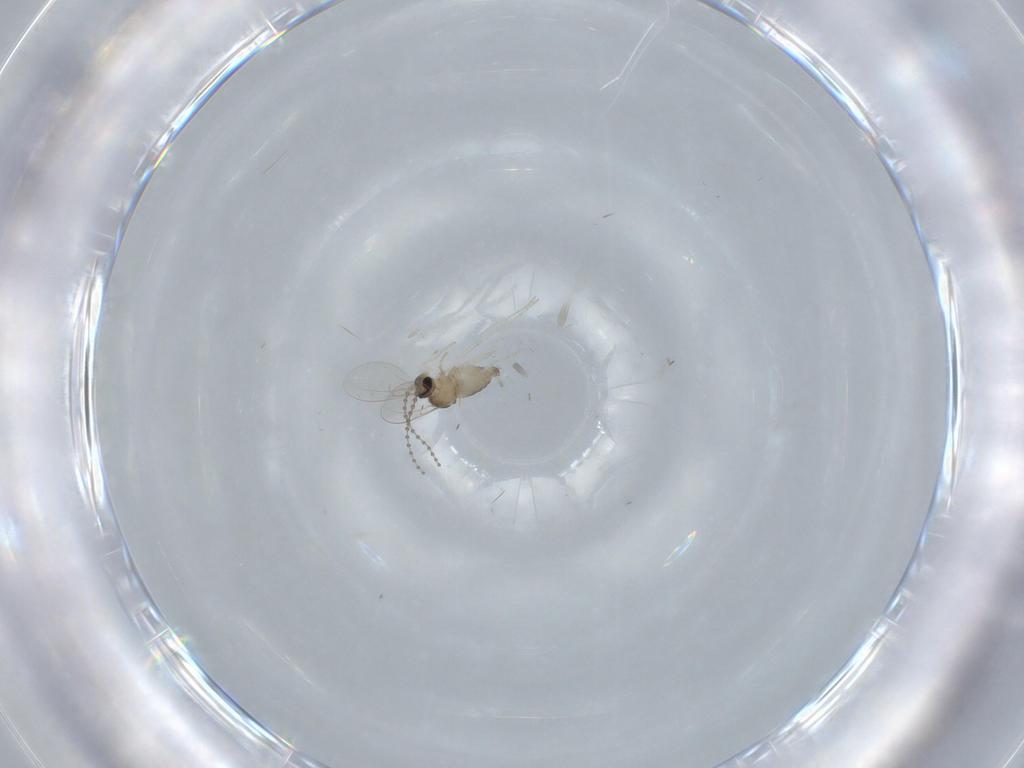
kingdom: Animalia
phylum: Arthropoda
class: Insecta
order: Diptera
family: Cecidomyiidae
